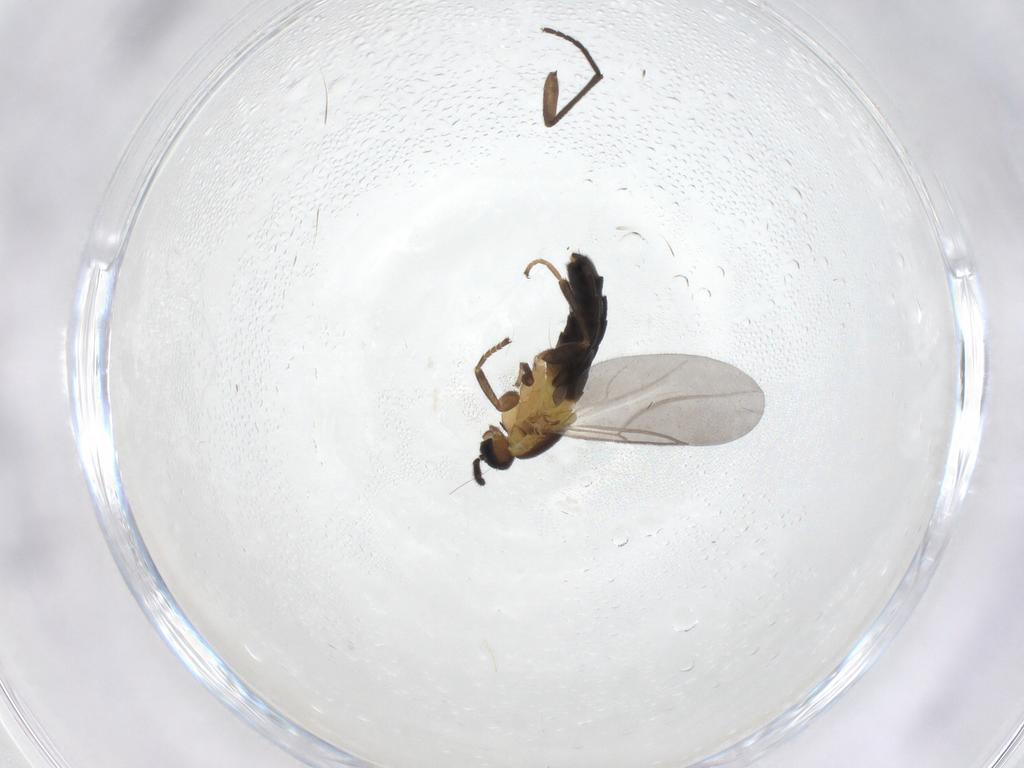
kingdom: Animalia
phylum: Arthropoda
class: Insecta
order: Diptera
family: Scatopsidae
